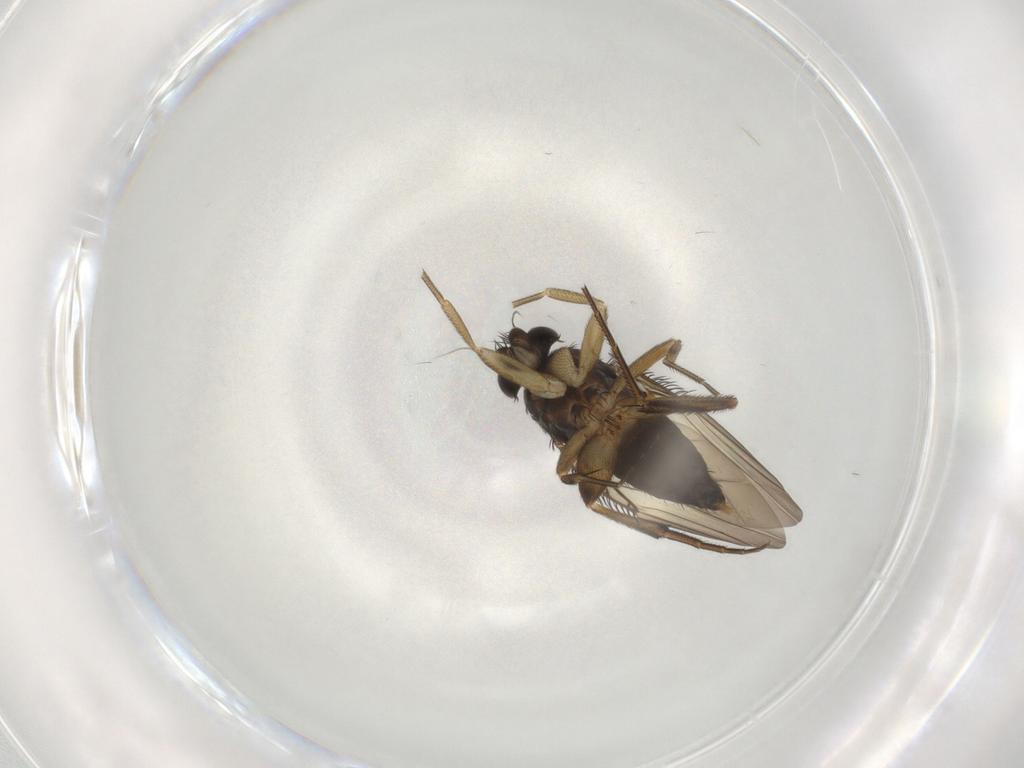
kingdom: Animalia
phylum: Arthropoda
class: Insecta
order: Diptera
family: Phoridae
